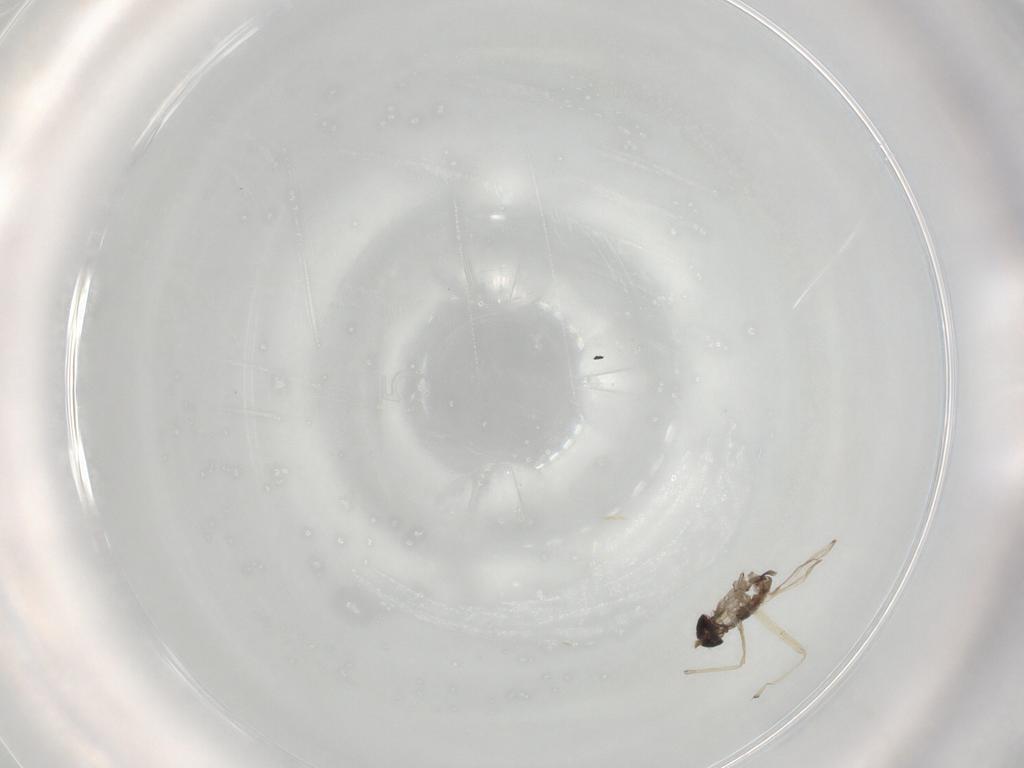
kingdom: Animalia
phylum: Arthropoda
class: Insecta
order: Diptera
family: Chironomidae
